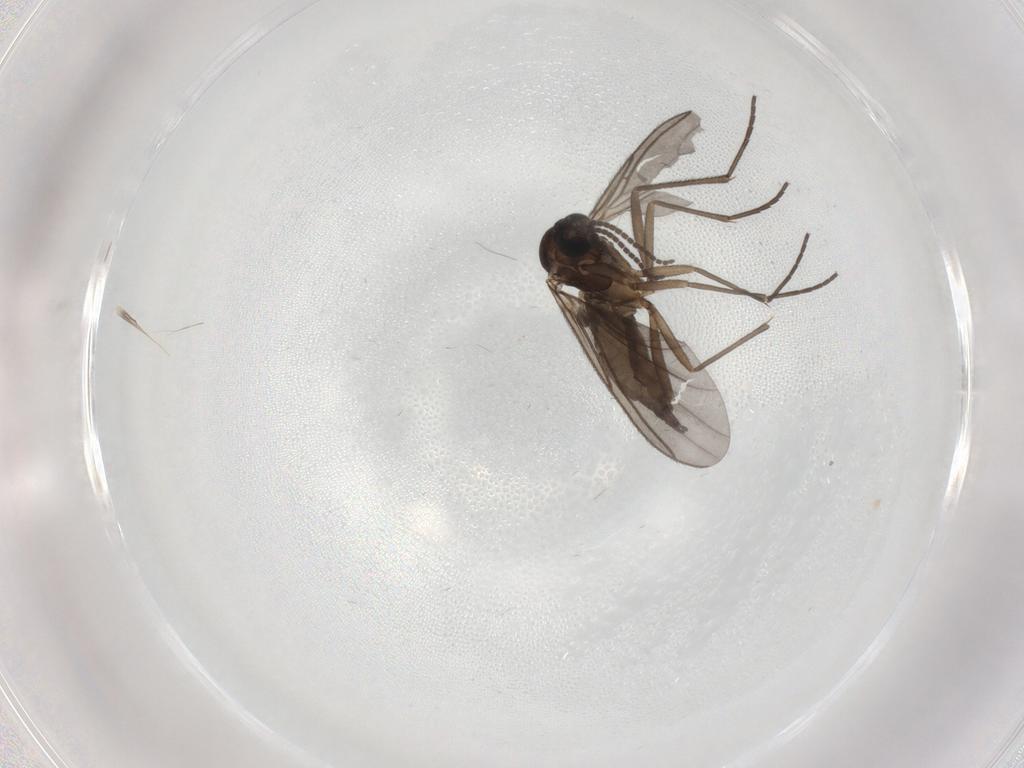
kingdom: Animalia
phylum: Arthropoda
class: Insecta
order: Diptera
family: Sciaridae
